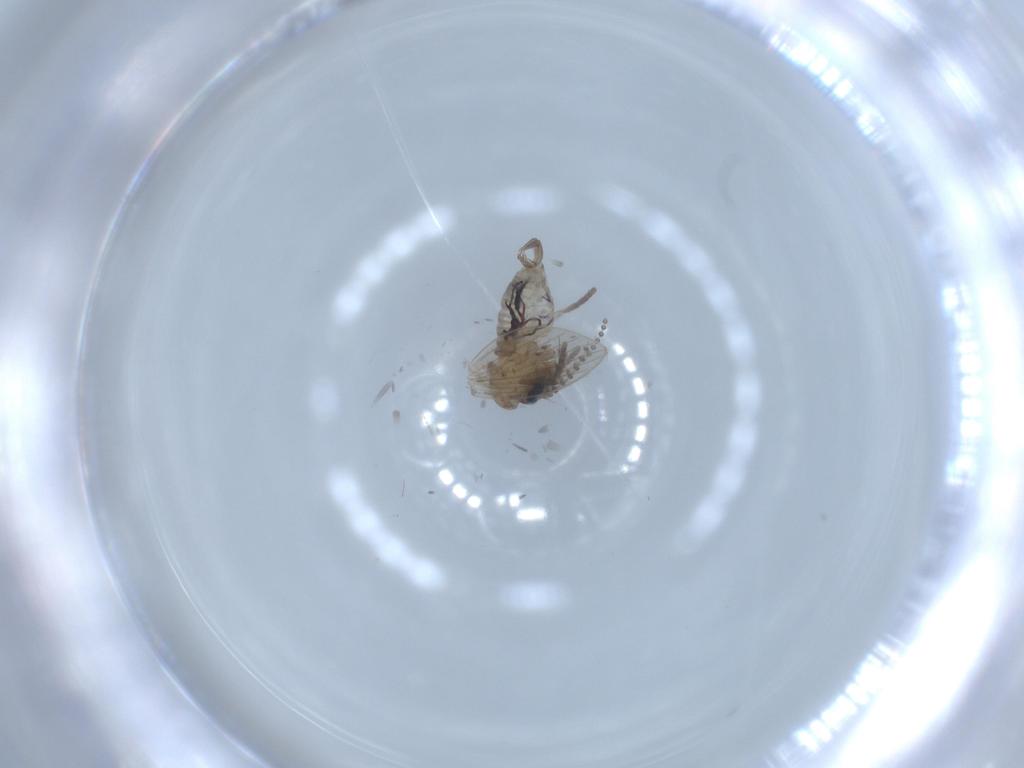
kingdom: Animalia
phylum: Arthropoda
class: Insecta
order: Diptera
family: Psychodidae
